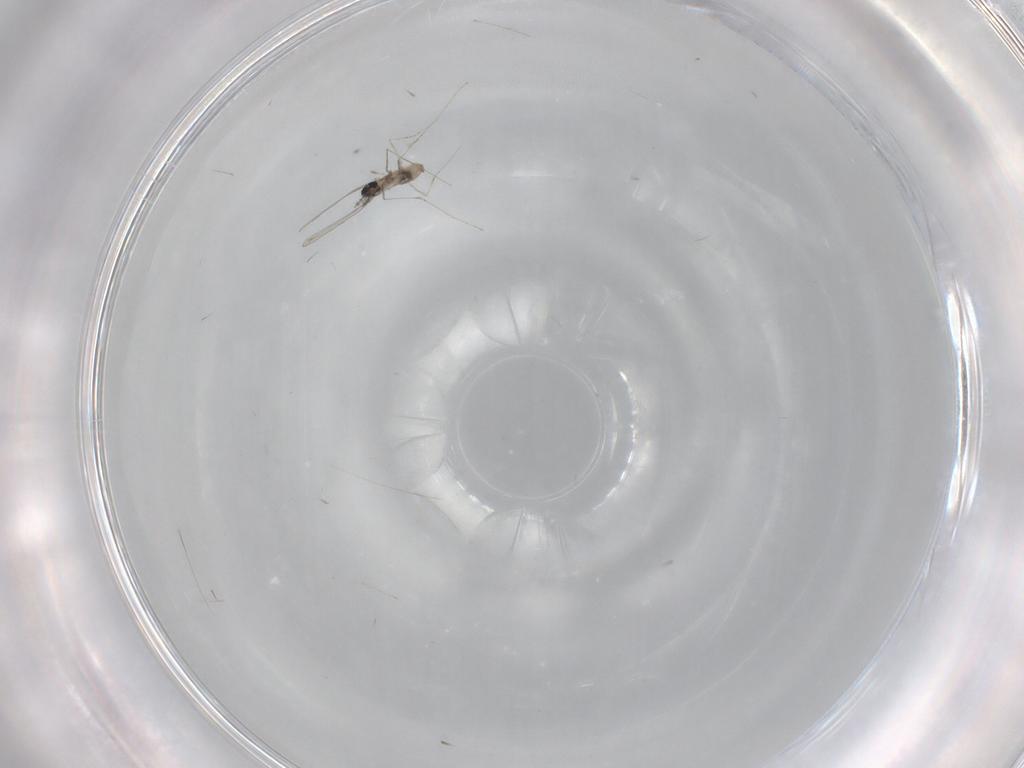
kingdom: Animalia
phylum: Arthropoda
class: Insecta
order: Diptera
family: Cecidomyiidae
